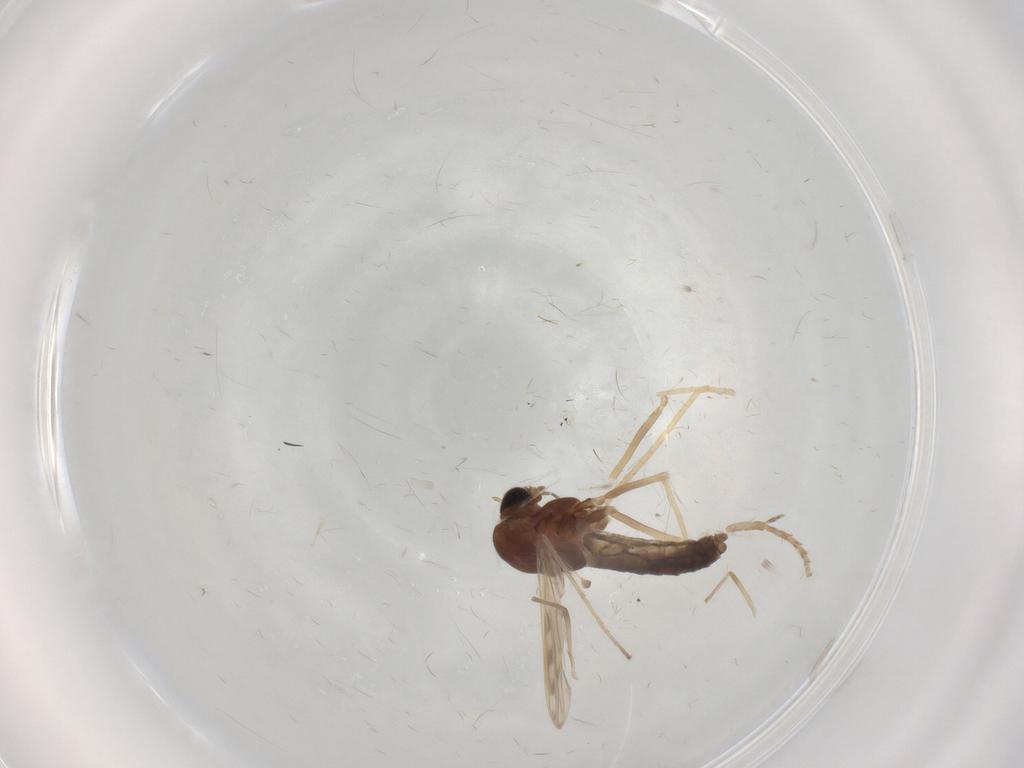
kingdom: Animalia
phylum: Arthropoda
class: Insecta
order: Diptera
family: Chironomidae
